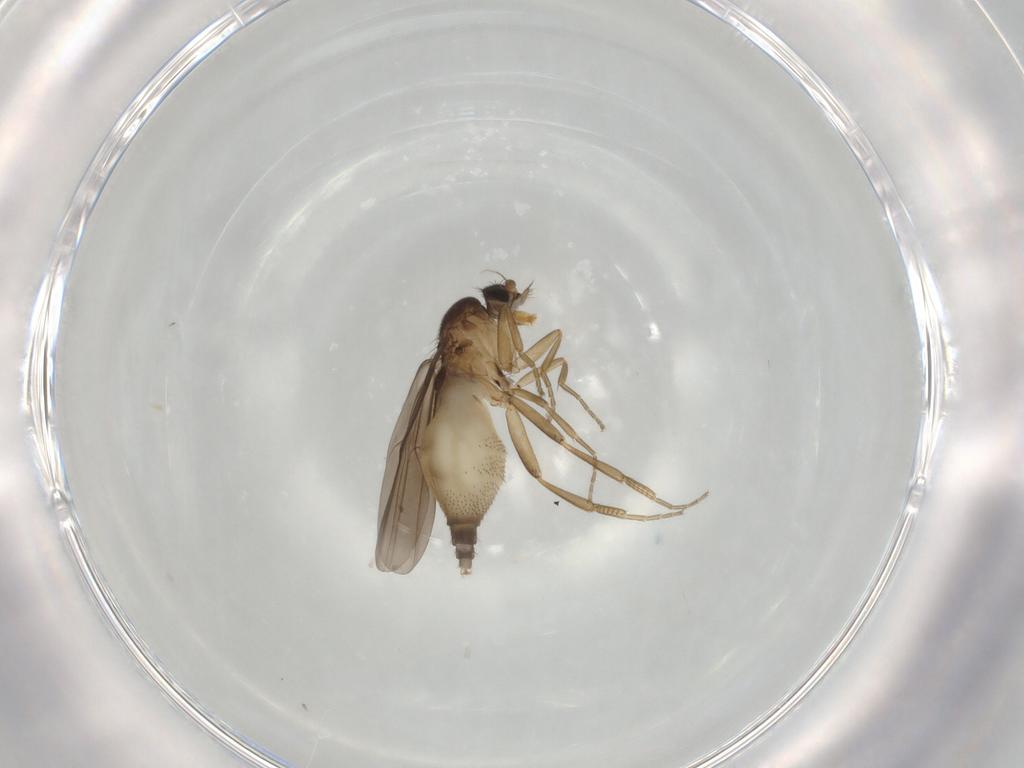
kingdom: Animalia
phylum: Arthropoda
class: Insecta
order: Diptera
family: Phoridae
